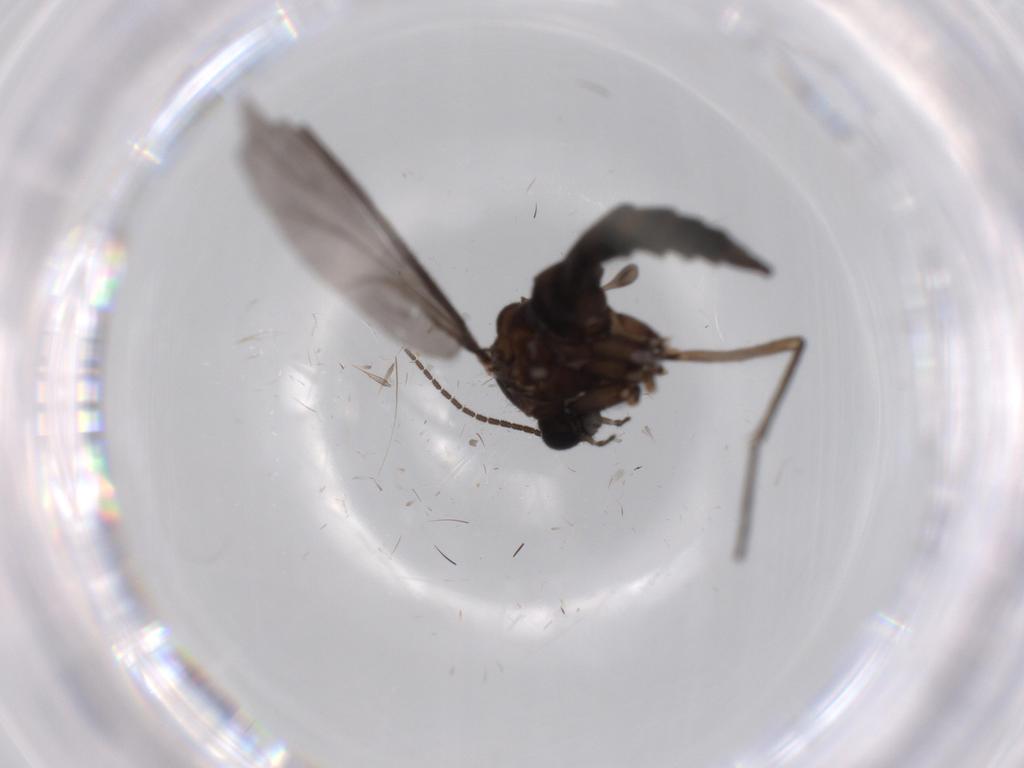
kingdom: Animalia
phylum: Arthropoda
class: Insecta
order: Diptera
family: Sciaridae
